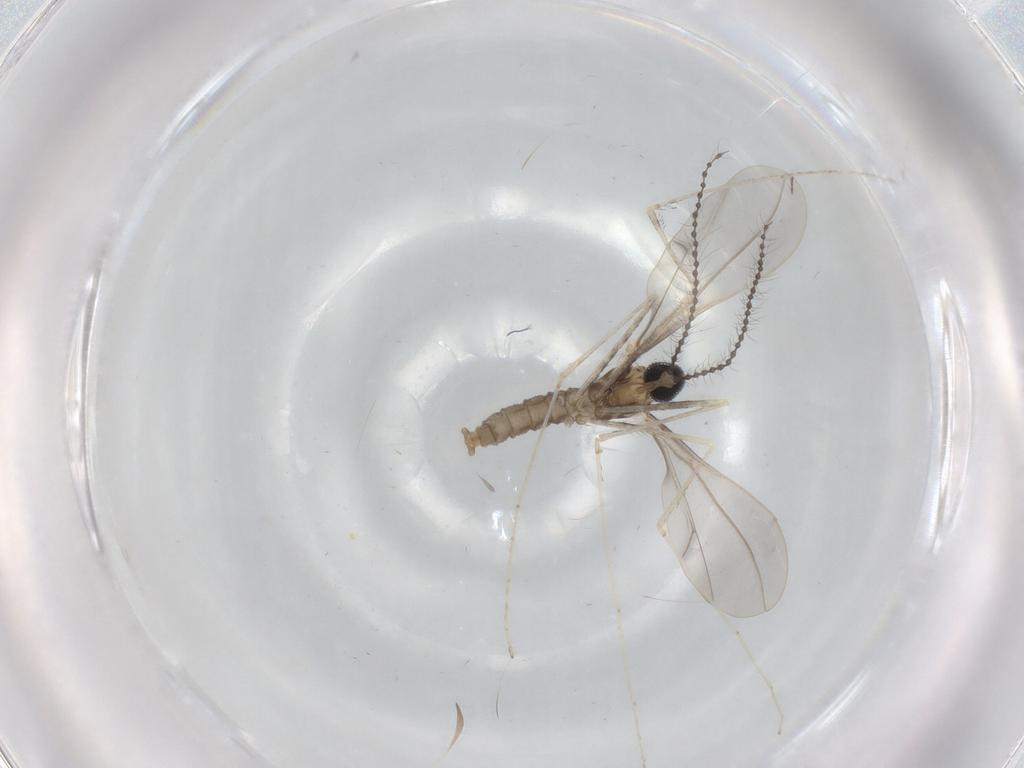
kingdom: Animalia
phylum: Arthropoda
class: Insecta
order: Diptera
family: Cecidomyiidae
